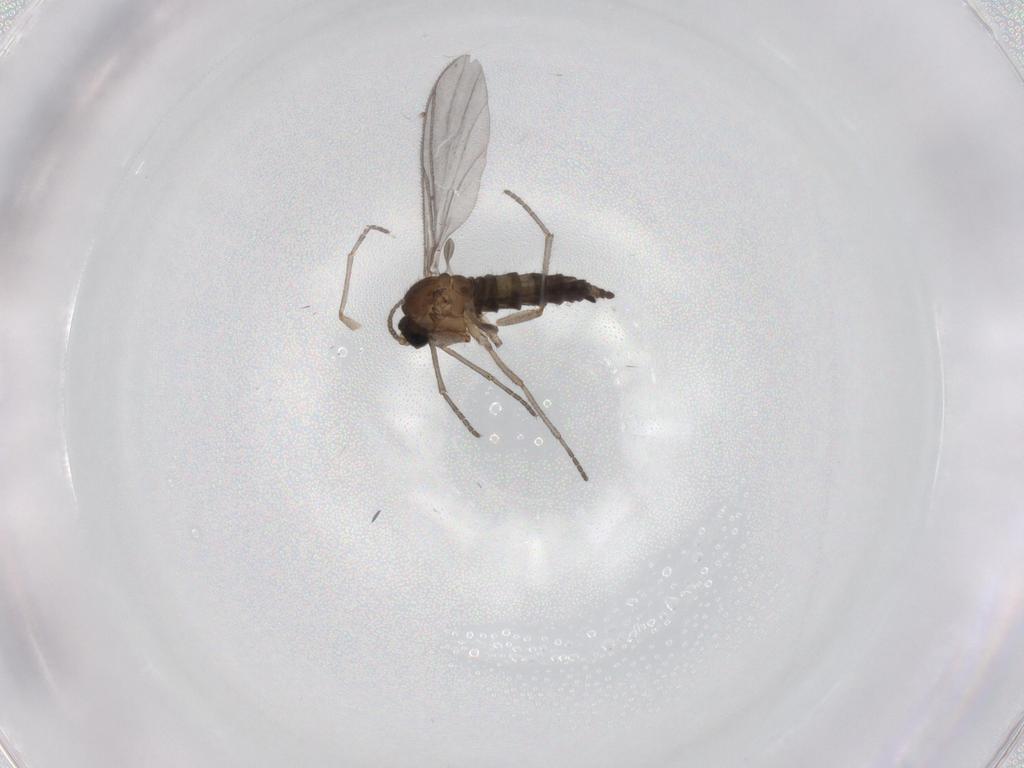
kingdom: Animalia
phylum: Arthropoda
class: Insecta
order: Diptera
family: Sciaridae
